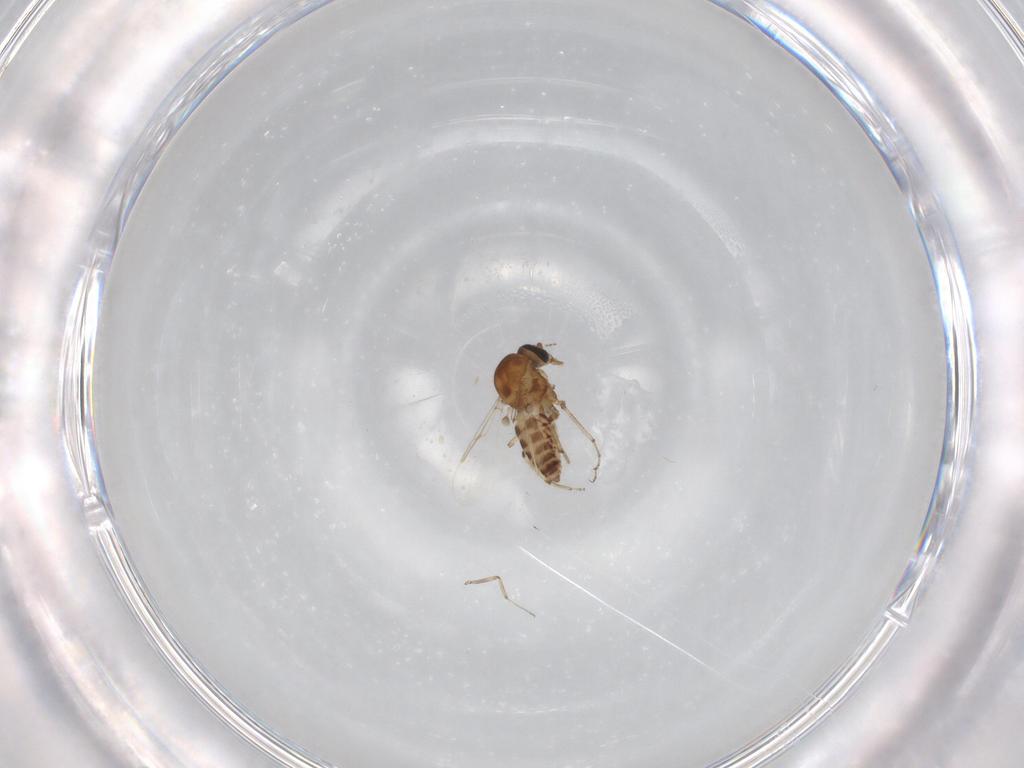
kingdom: Animalia
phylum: Arthropoda
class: Insecta
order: Diptera
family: Ceratopogonidae
